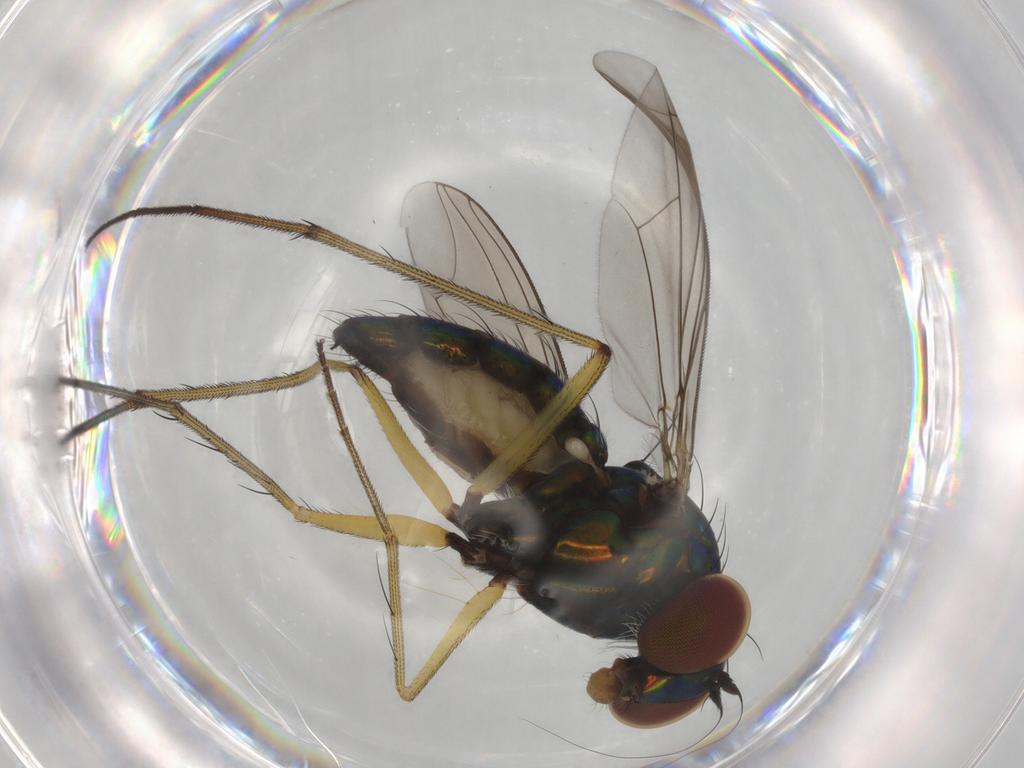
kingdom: Animalia
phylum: Arthropoda
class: Insecta
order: Diptera
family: Dolichopodidae
